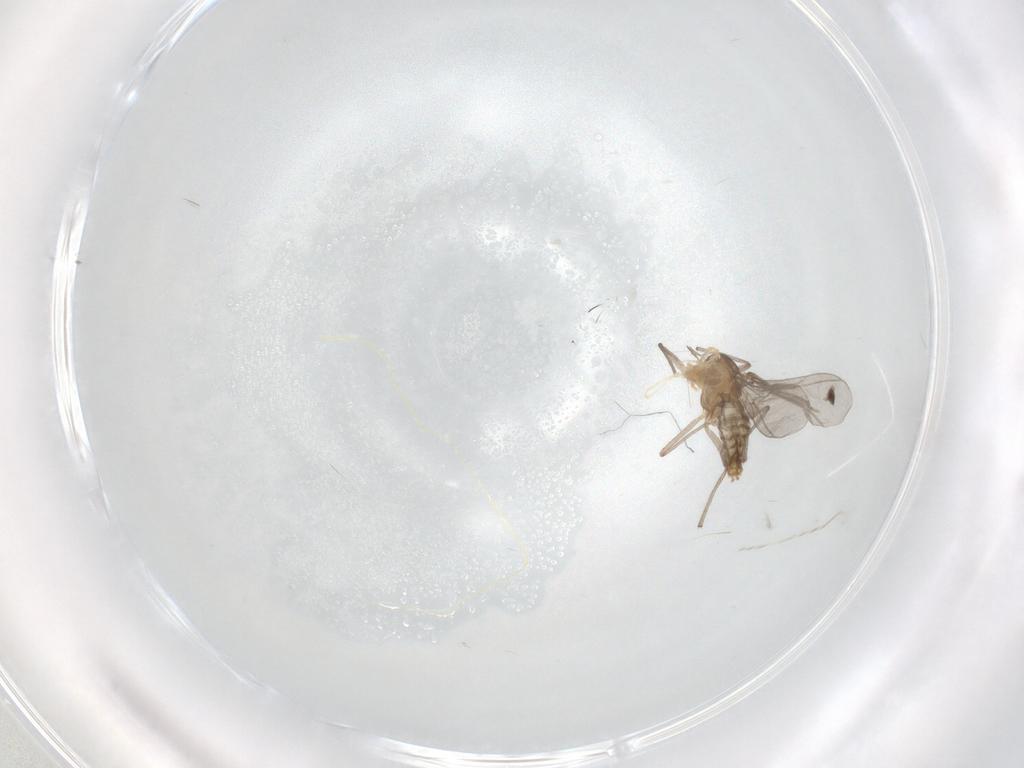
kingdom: Animalia
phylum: Arthropoda
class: Insecta
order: Diptera
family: Chironomidae
